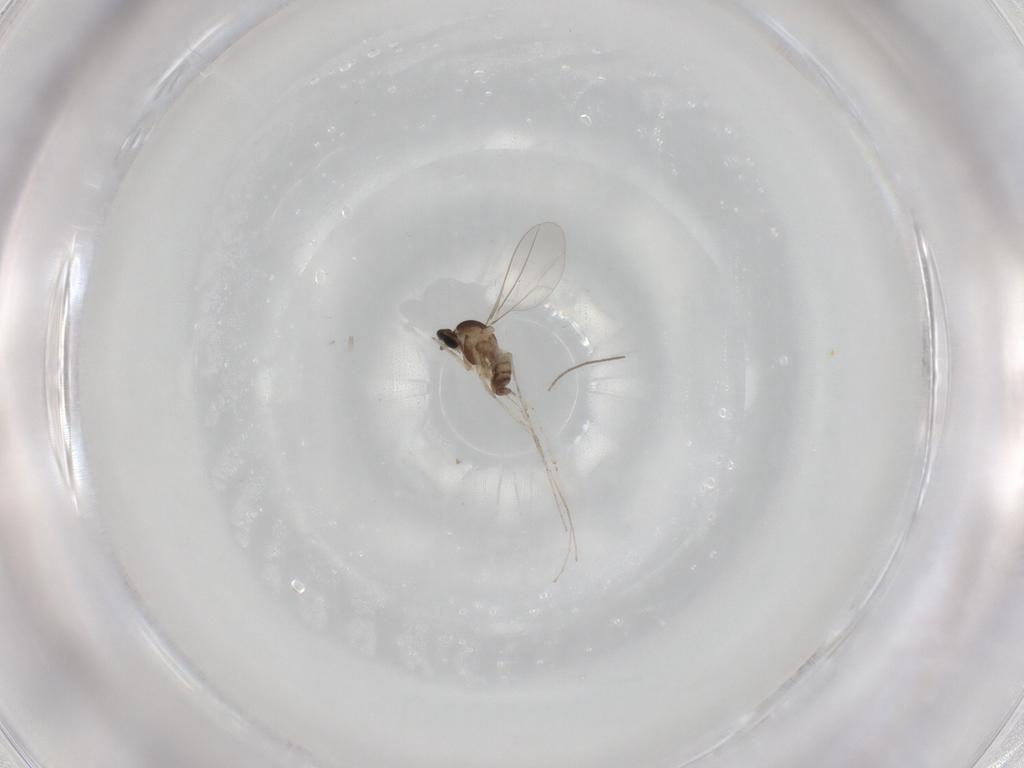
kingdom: Animalia
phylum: Arthropoda
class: Insecta
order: Diptera
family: Cecidomyiidae
